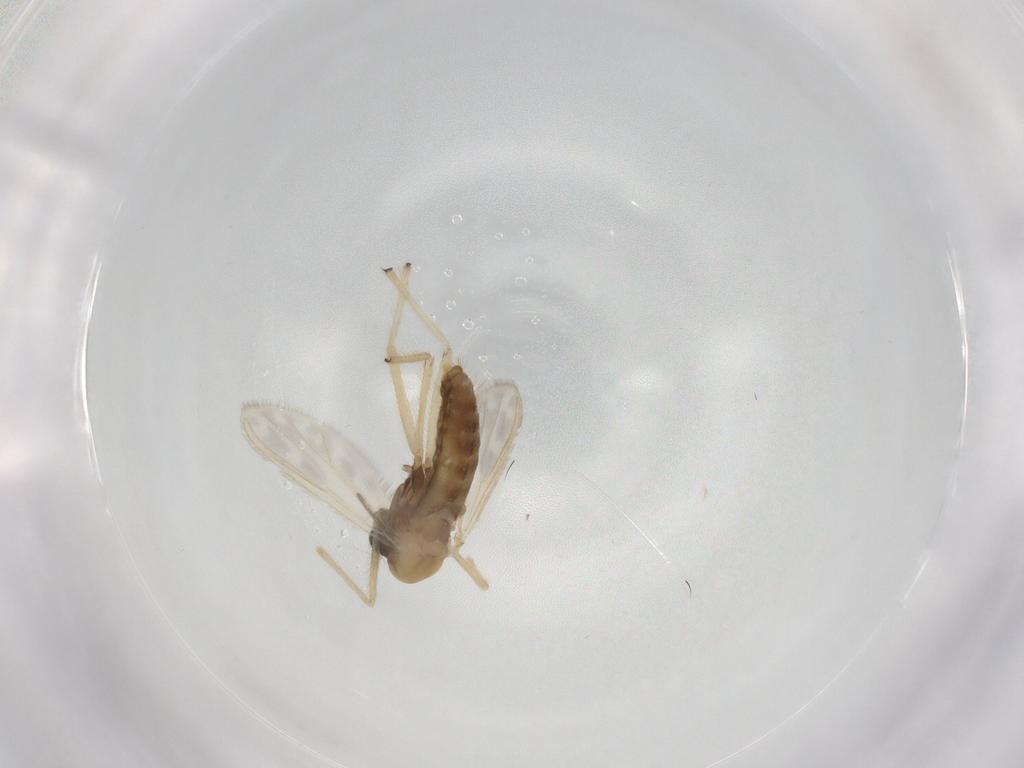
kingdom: Animalia
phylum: Arthropoda
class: Insecta
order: Diptera
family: Chironomidae
